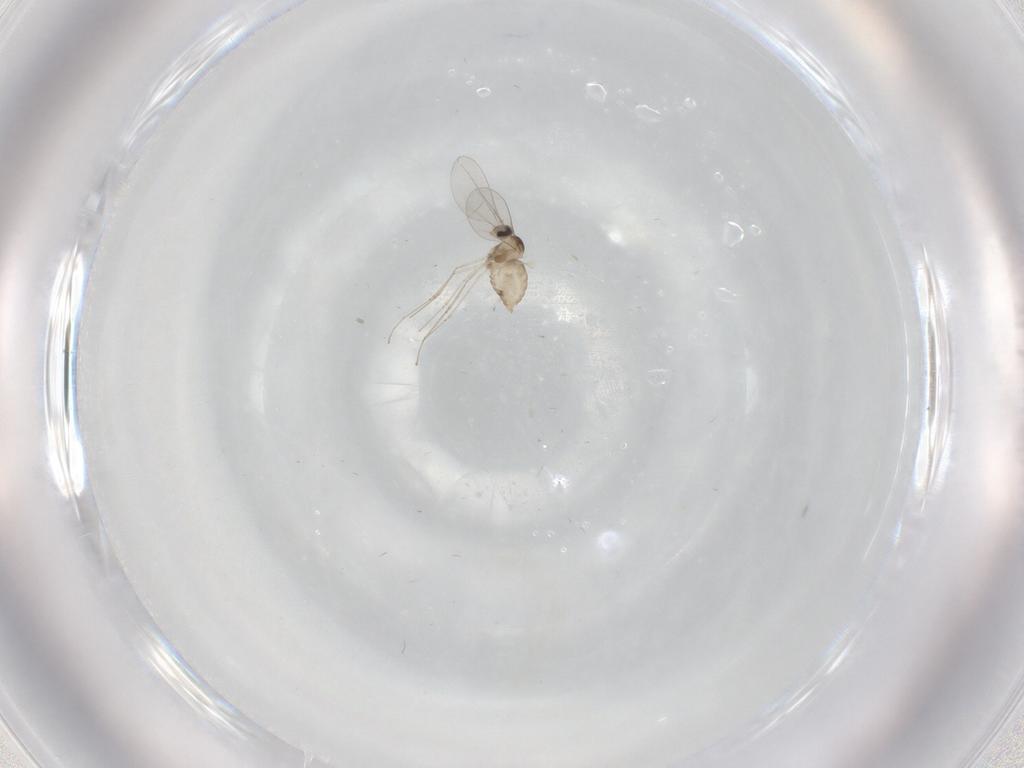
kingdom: Animalia
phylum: Arthropoda
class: Insecta
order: Diptera
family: Cecidomyiidae
